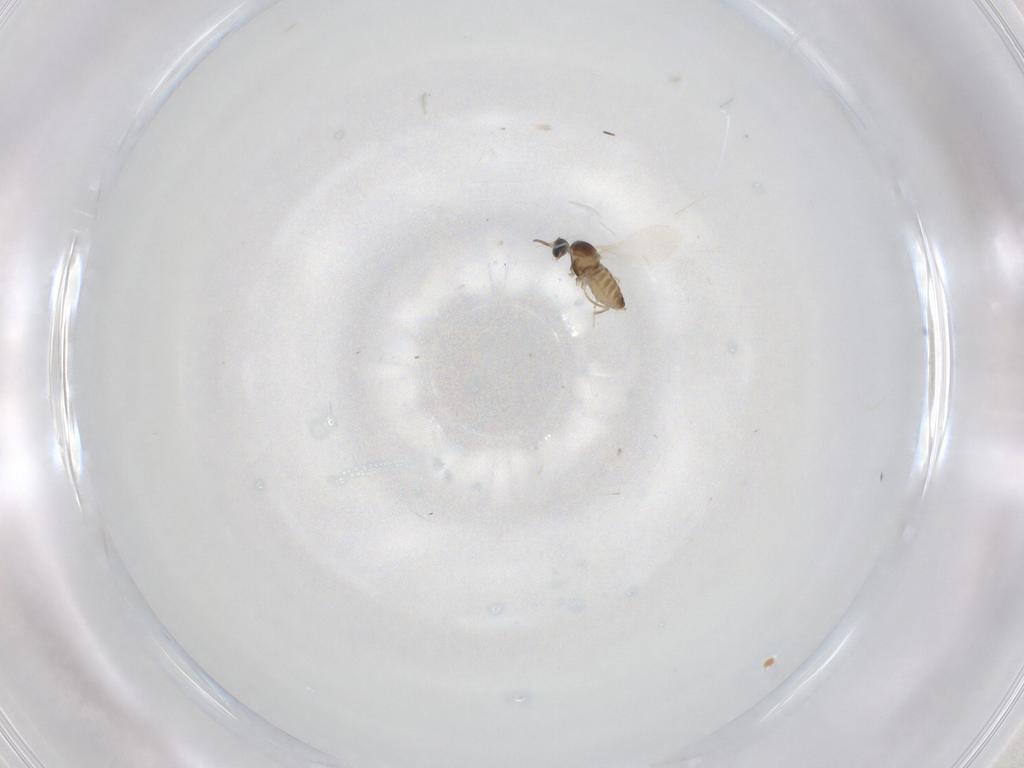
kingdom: Animalia
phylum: Arthropoda
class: Insecta
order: Diptera
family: Cecidomyiidae
